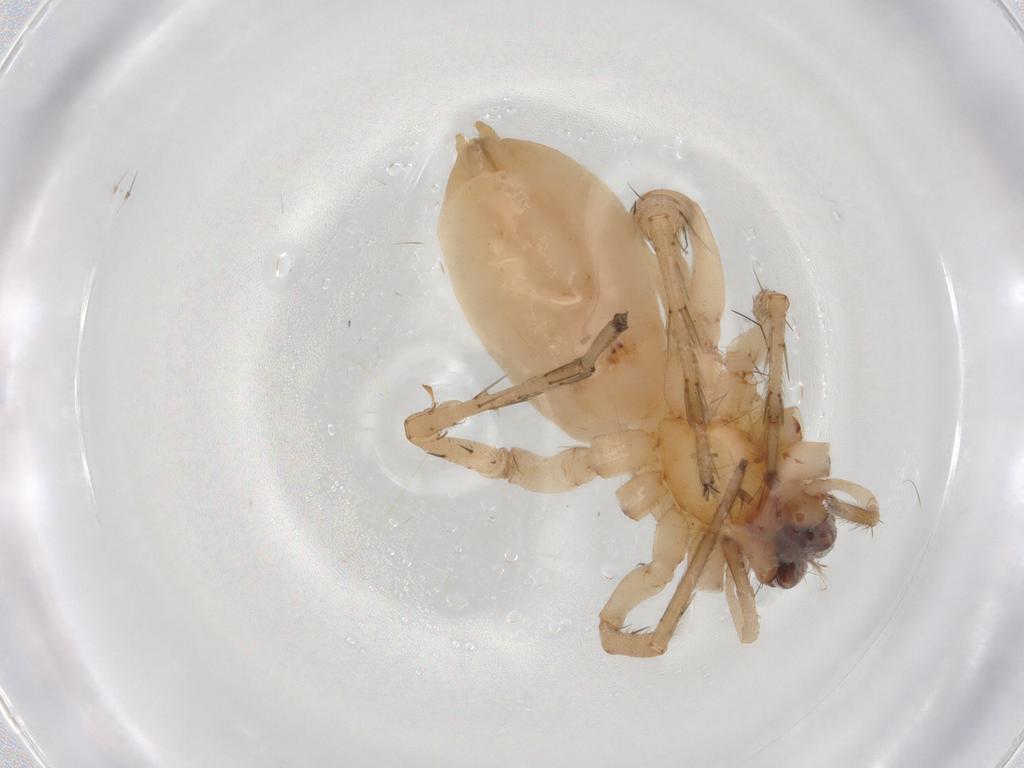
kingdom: Animalia
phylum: Arthropoda
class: Arachnida
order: Araneae
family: Anyphaenidae
